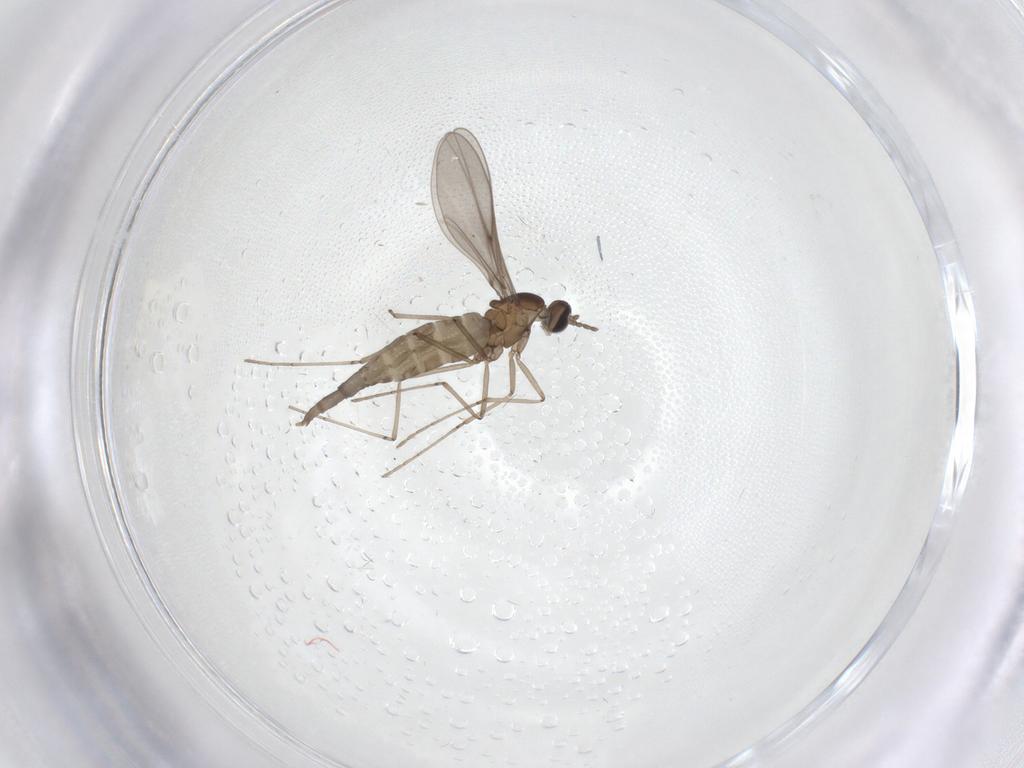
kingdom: Animalia
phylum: Arthropoda
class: Insecta
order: Diptera
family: Cecidomyiidae
